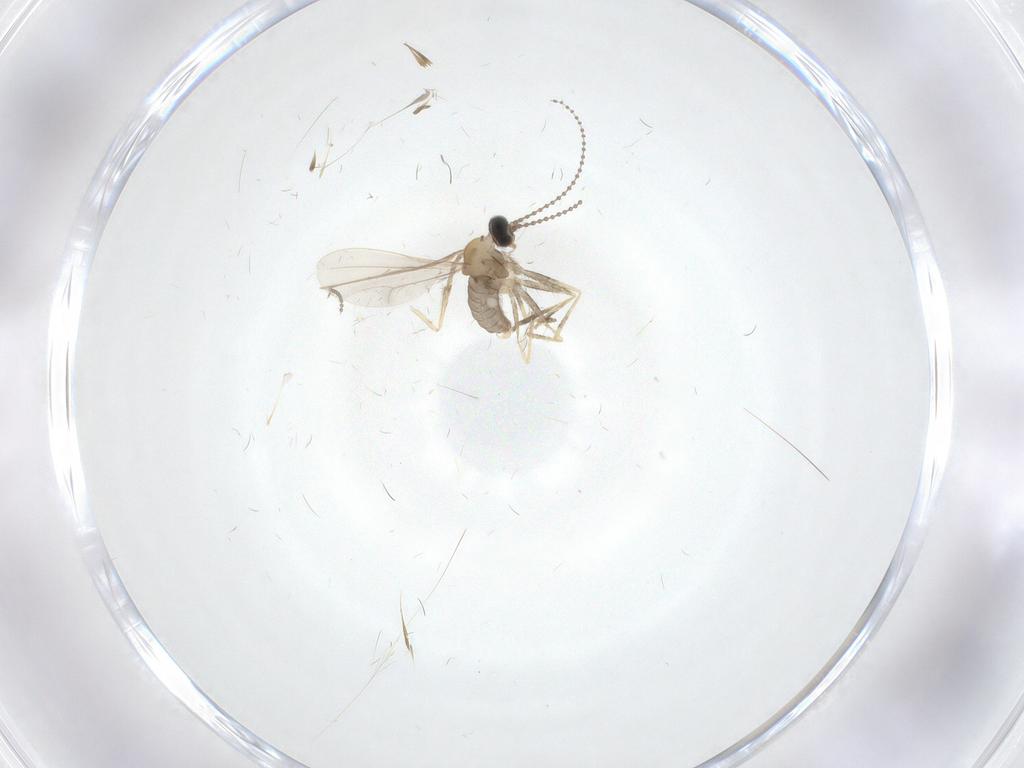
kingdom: Animalia
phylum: Arthropoda
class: Insecta
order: Diptera
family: Cecidomyiidae
